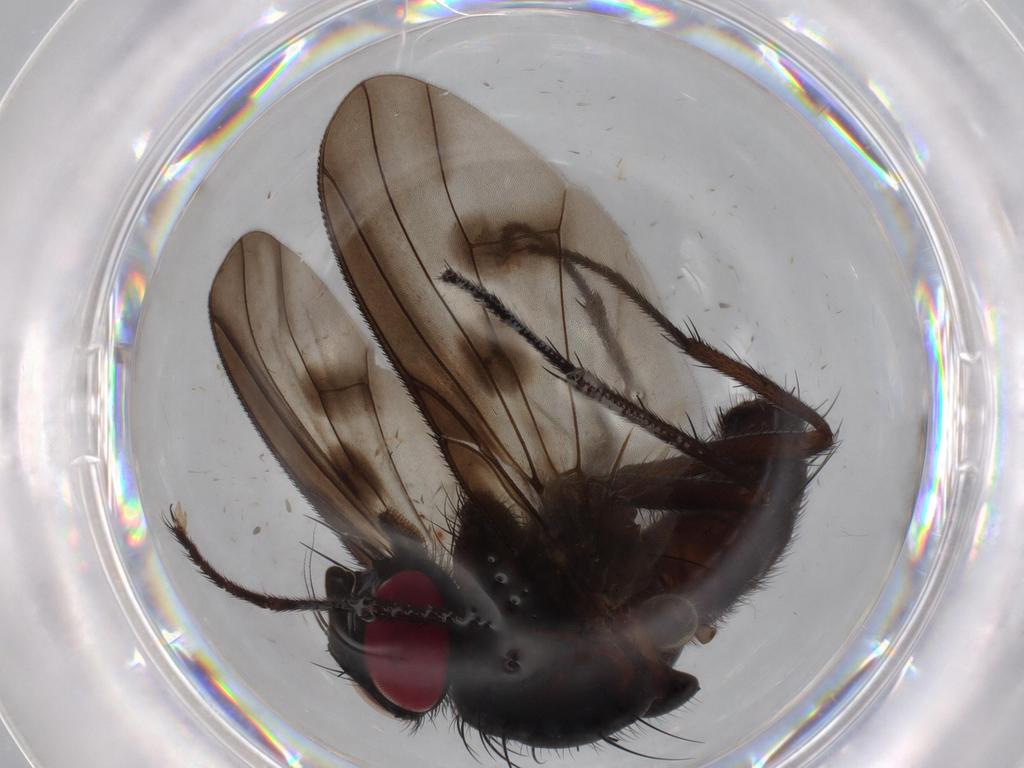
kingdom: Animalia
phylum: Arthropoda
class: Insecta
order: Diptera
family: Muscidae
